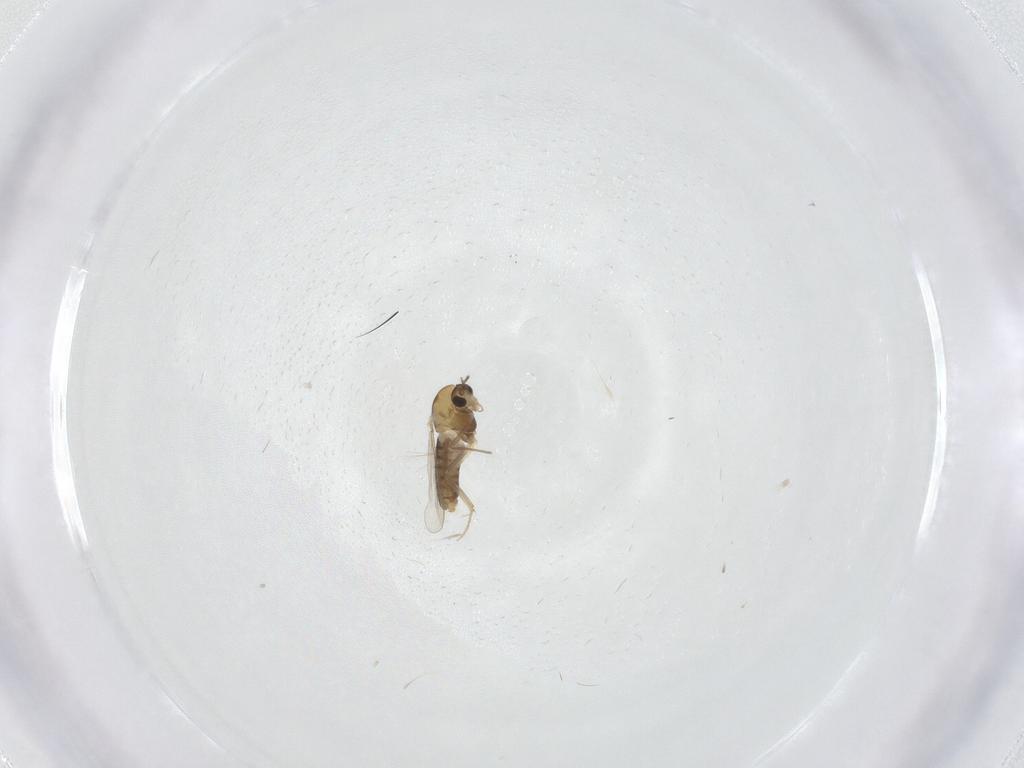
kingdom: Animalia
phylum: Arthropoda
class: Insecta
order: Diptera
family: Chironomidae
